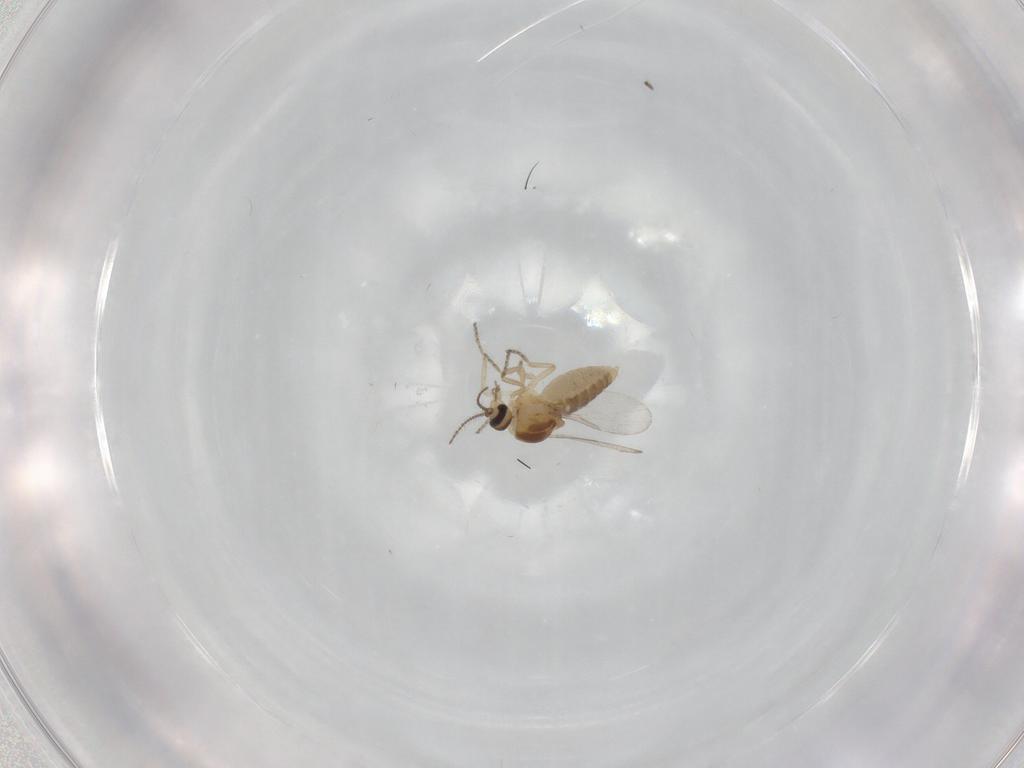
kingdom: Animalia
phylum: Arthropoda
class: Insecta
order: Diptera
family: Ceratopogonidae
